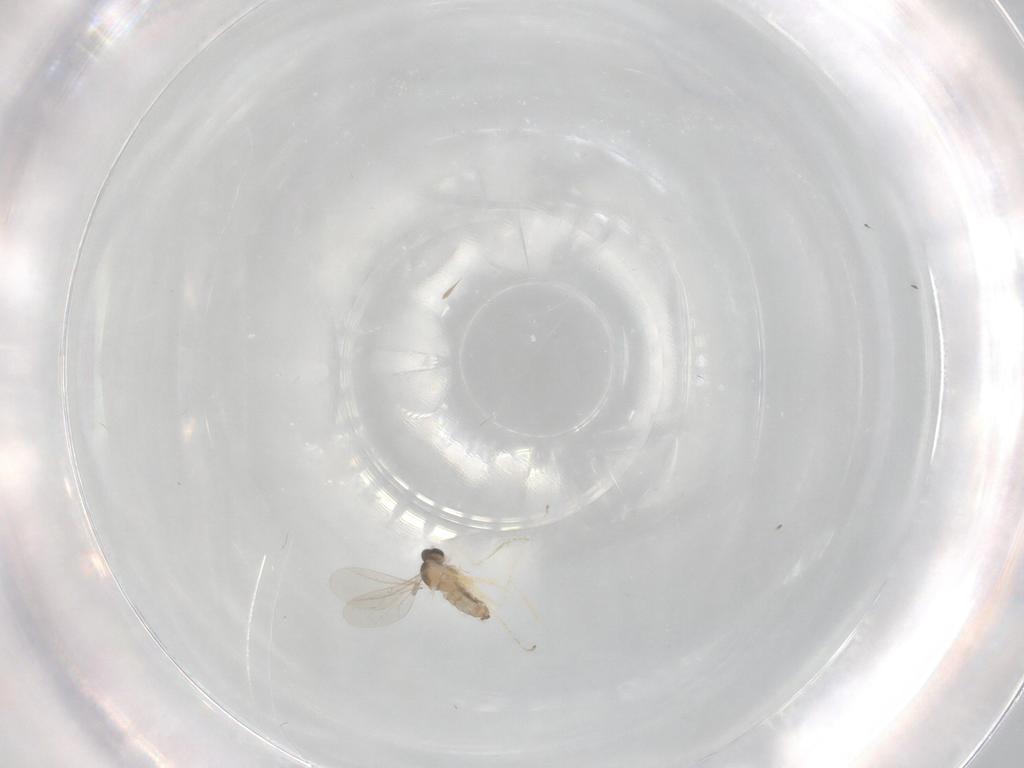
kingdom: Animalia
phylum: Arthropoda
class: Insecta
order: Diptera
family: Cecidomyiidae
